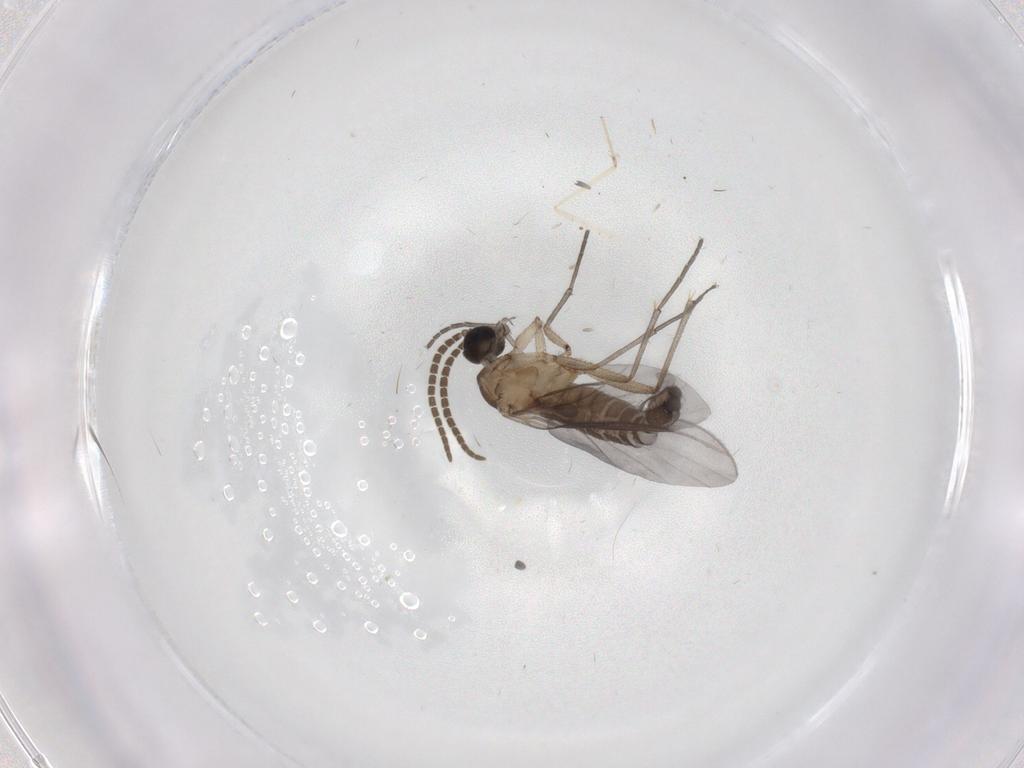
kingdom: Animalia
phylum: Arthropoda
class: Insecta
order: Diptera
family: Cecidomyiidae
